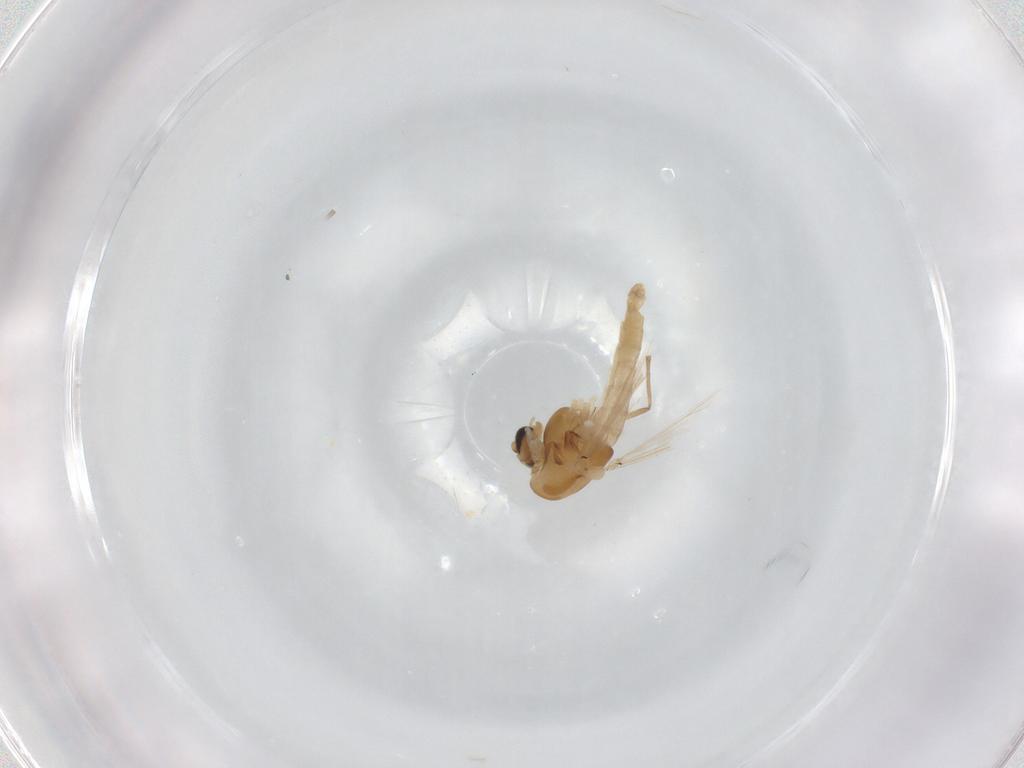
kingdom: Animalia
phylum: Arthropoda
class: Insecta
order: Diptera
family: Chironomidae
